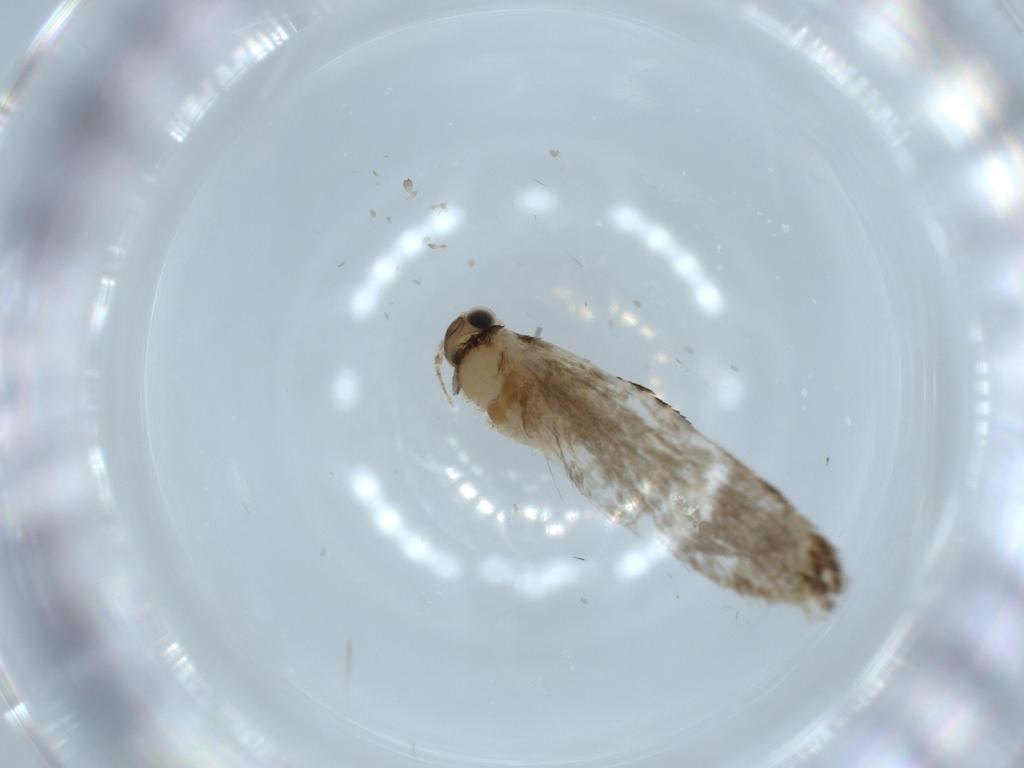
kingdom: Animalia
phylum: Arthropoda
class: Insecta
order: Lepidoptera
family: Tineidae
